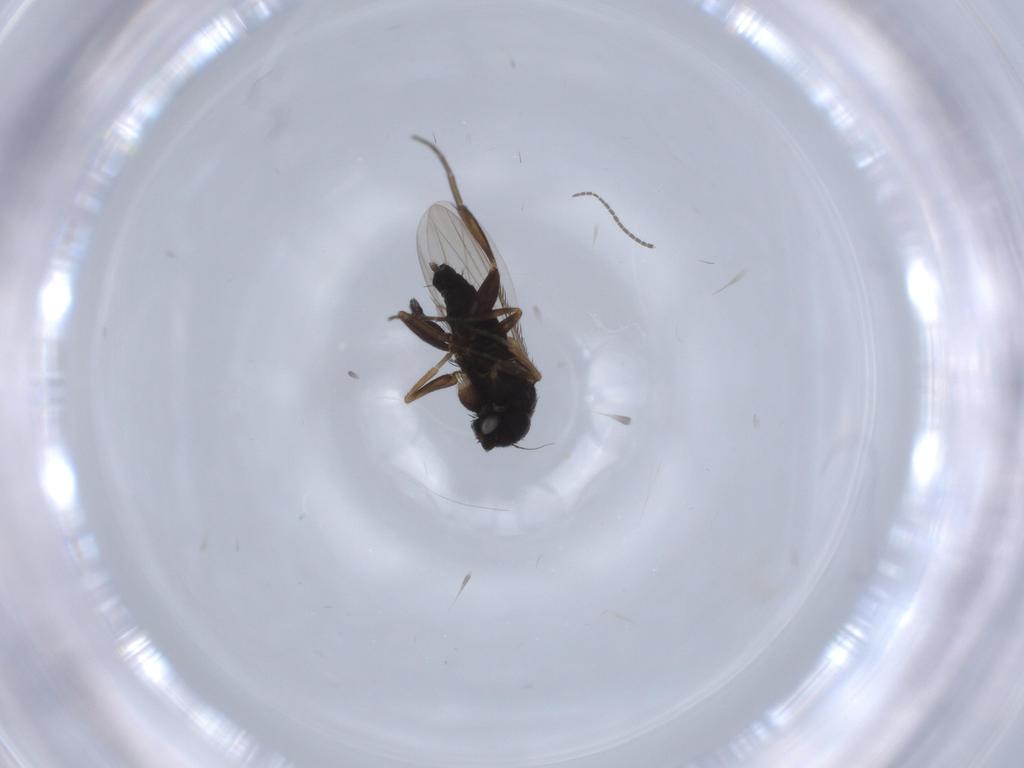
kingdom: Animalia
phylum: Arthropoda
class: Insecta
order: Diptera
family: Phoridae
